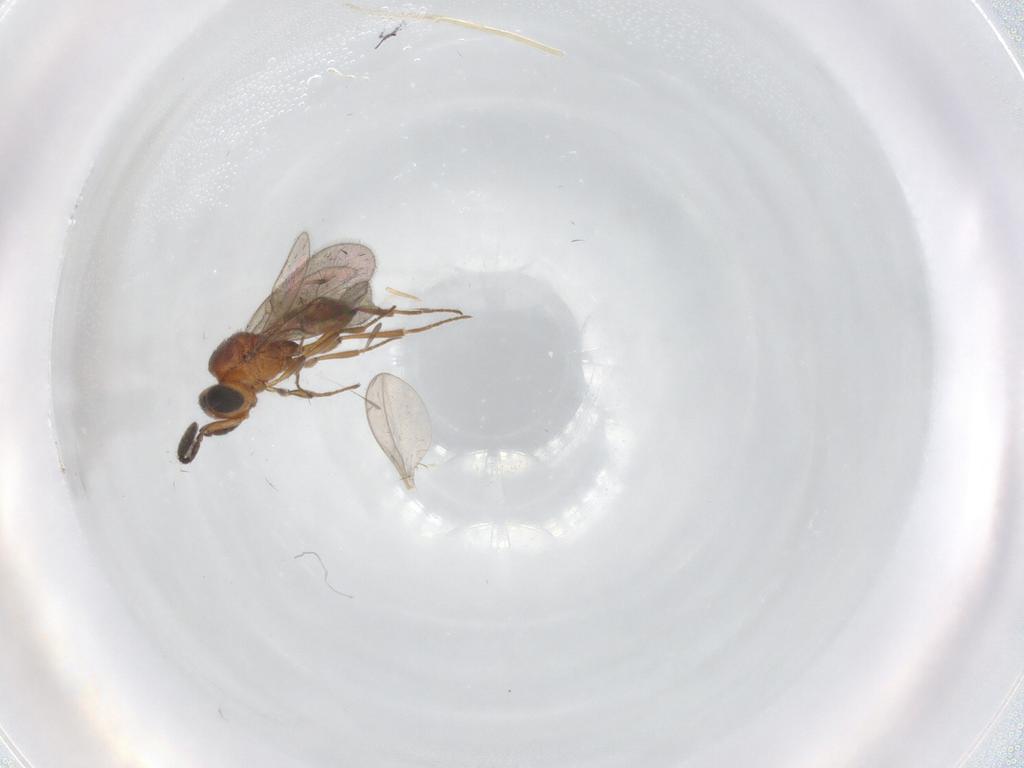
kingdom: Animalia
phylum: Arthropoda
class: Insecta
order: Hymenoptera
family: Scelionidae
